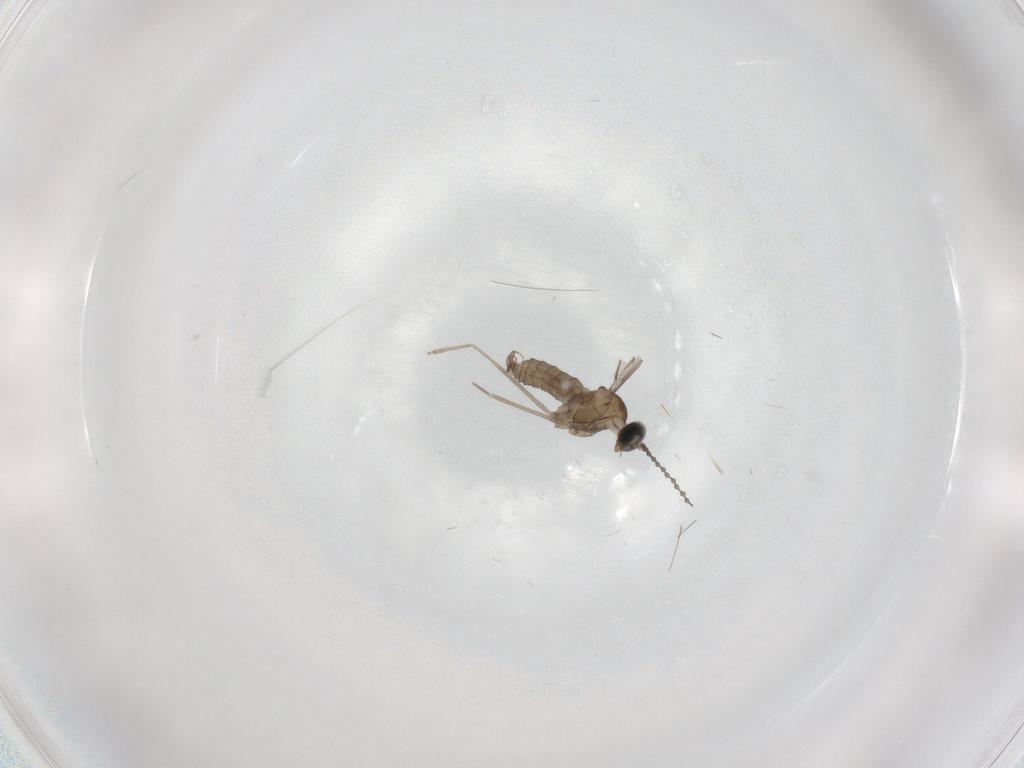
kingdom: Animalia
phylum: Arthropoda
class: Insecta
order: Diptera
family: Cecidomyiidae
